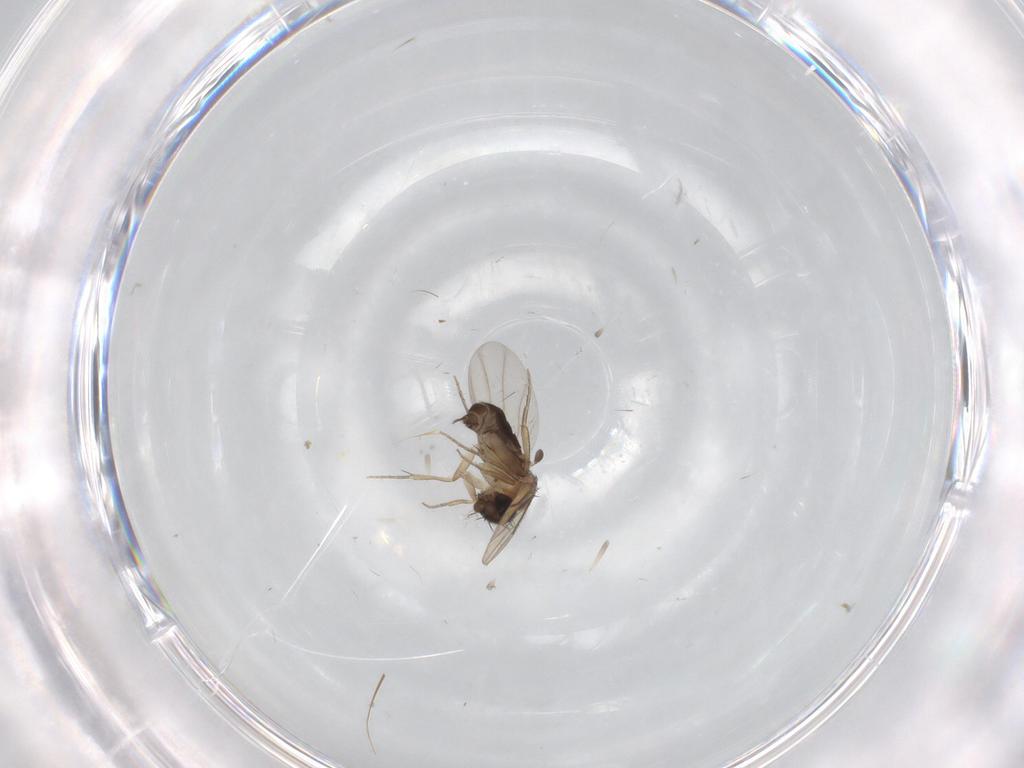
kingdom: Animalia
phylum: Arthropoda
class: Insecta
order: Diptera
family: Phoridae
